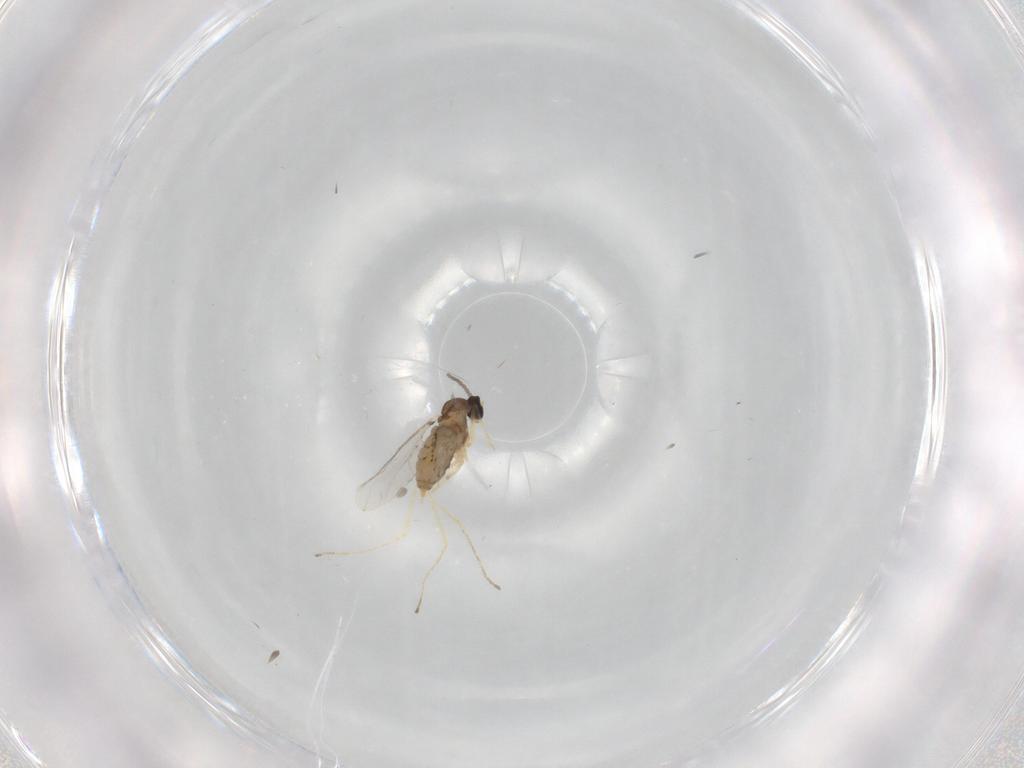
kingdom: Animalia
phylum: Arthropoda
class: Insecta
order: Diptera
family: Cecidomyiidae
